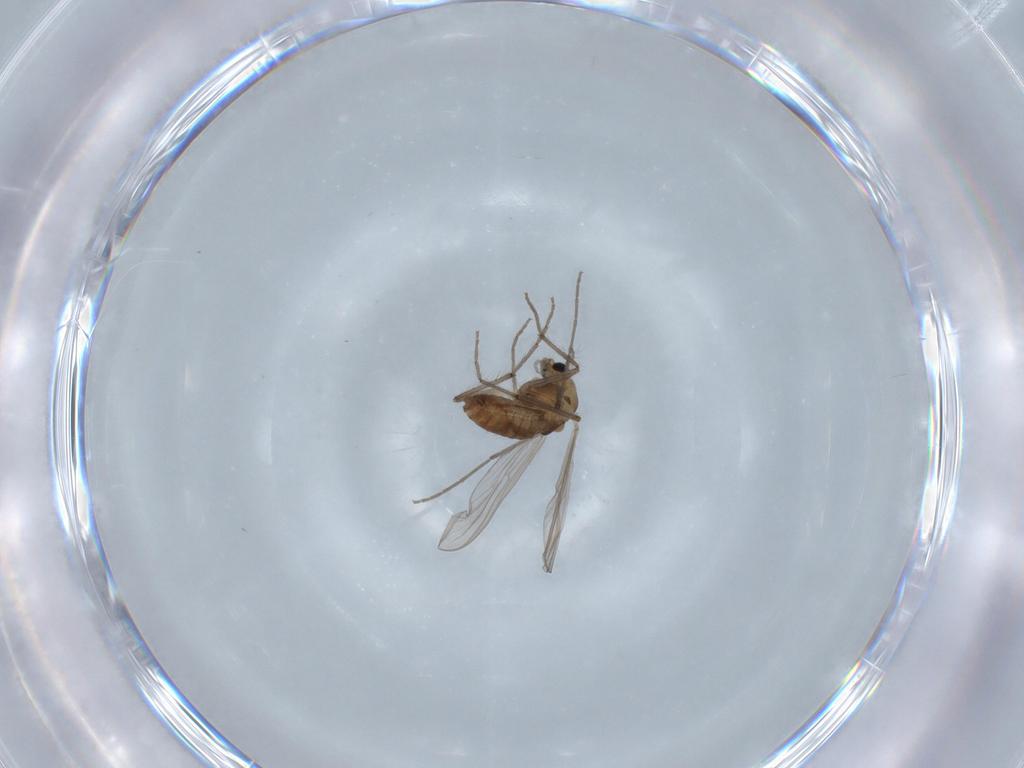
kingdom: Animalia
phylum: Arthropoda
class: Insecta
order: Diptera
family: Chironomidae
